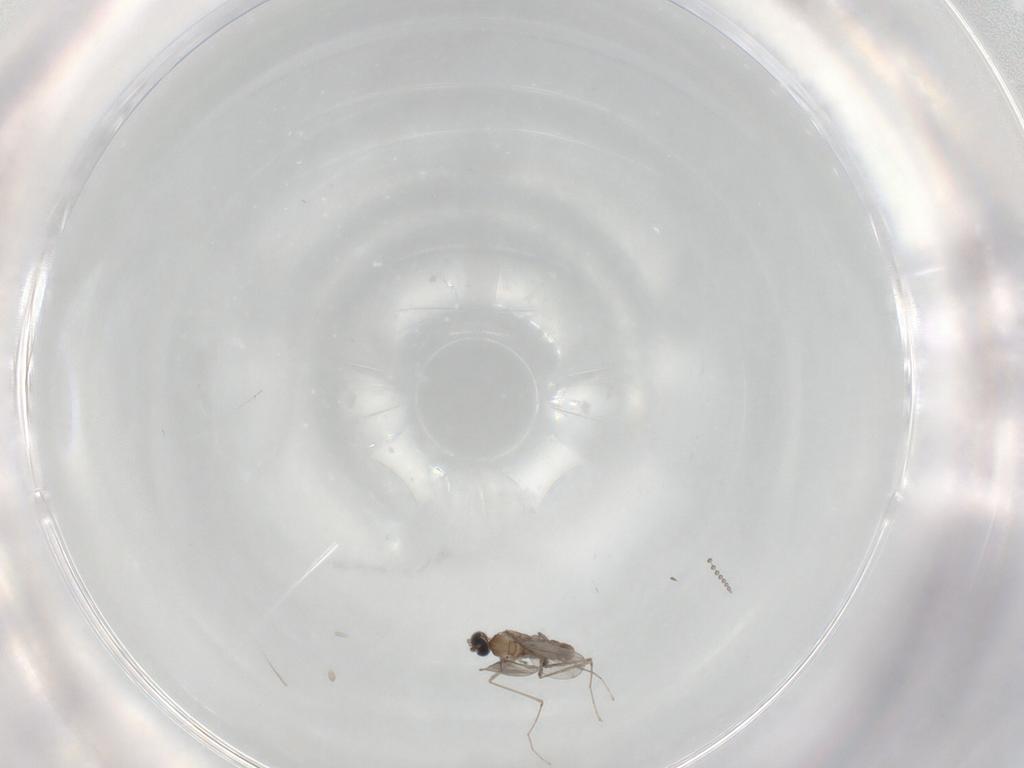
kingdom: Animalia
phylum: Arthropoda
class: Insecta
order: Diptera
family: Cecidomyiidae
